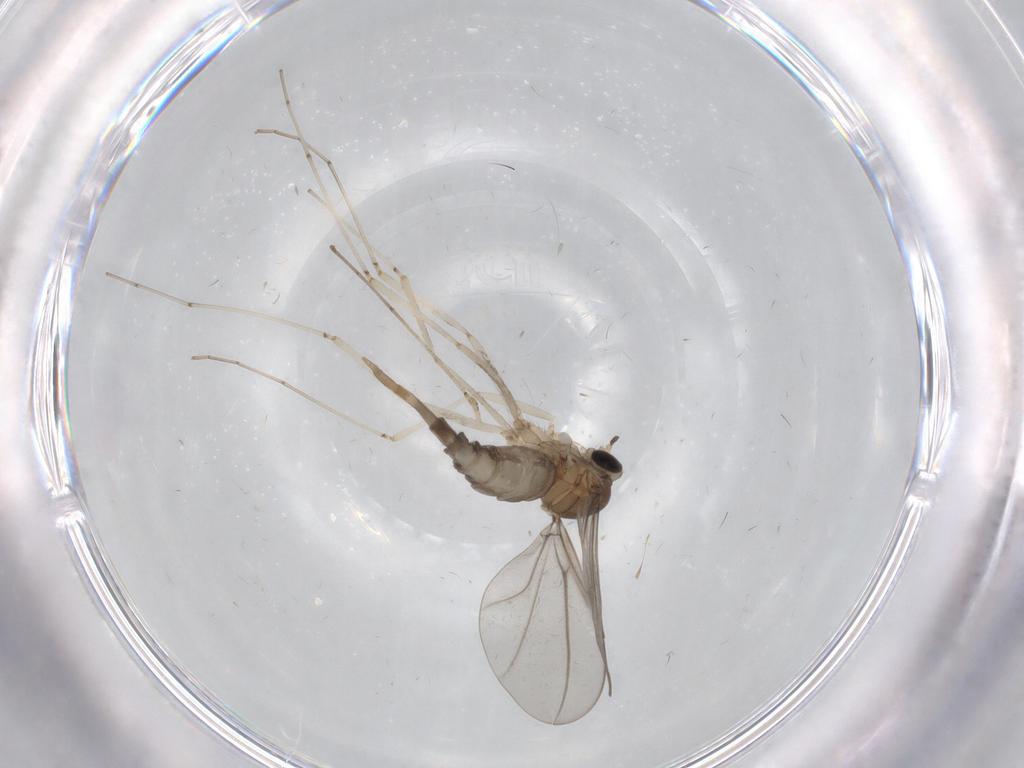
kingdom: Animalia
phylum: Arthropoda
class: Insecta
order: Diptera
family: Cecidomyiidae
